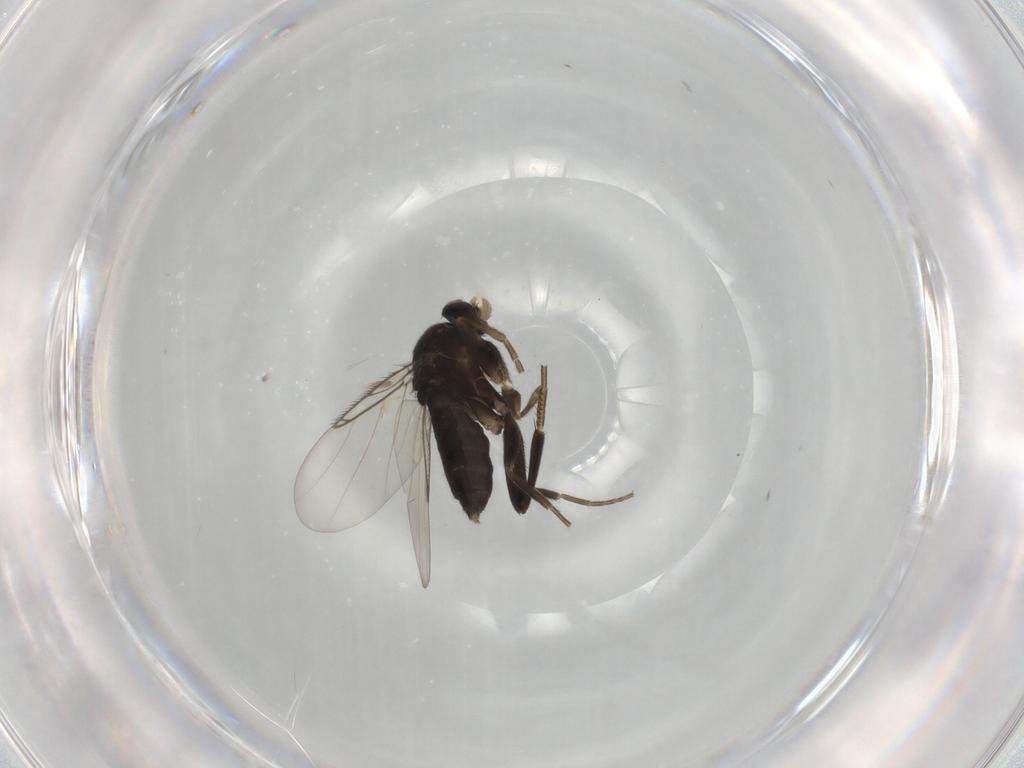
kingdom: Animalia
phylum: Arthropoda
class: Insecta
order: Diptera
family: Phoridae
